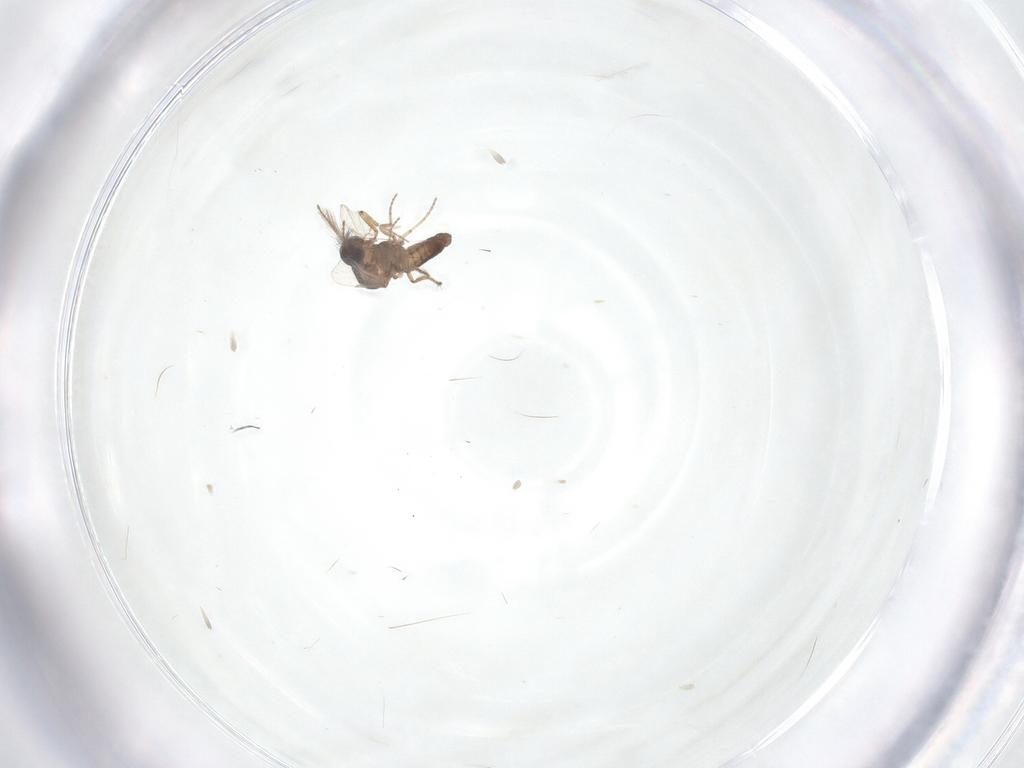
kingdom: Animalia
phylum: Arthropoda
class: Insecta
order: Diptera
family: Ceratopogonidae
